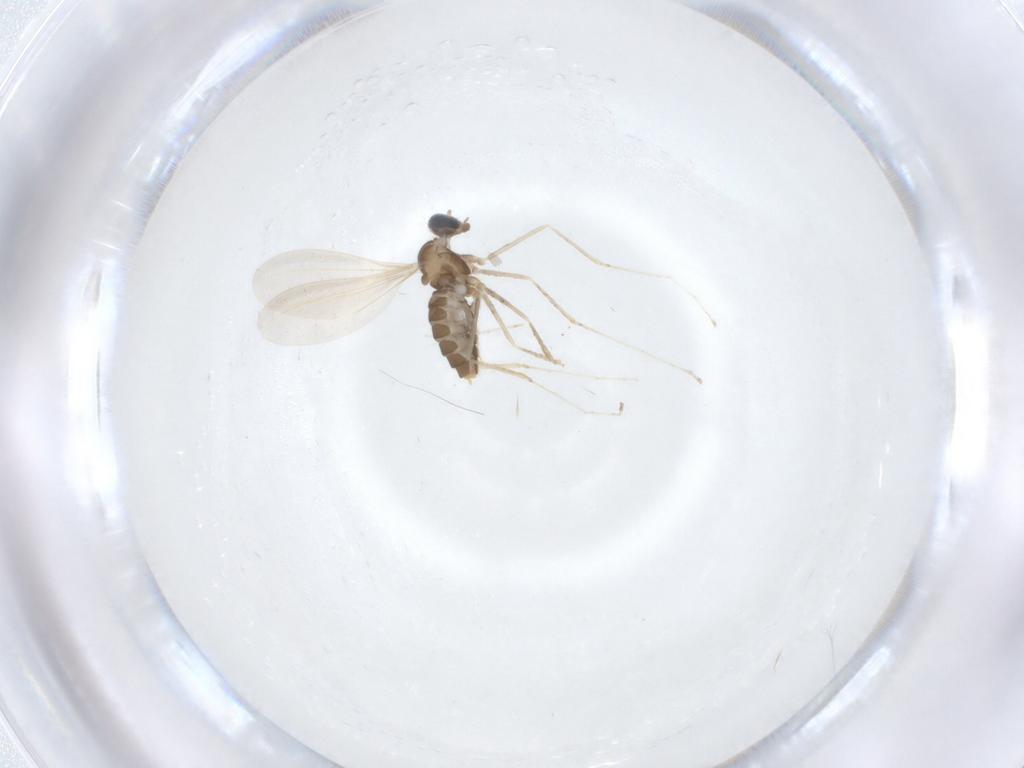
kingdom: Animalia
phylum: Arthropoda
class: Insecta
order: Diptera
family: Cecidomyiidae
